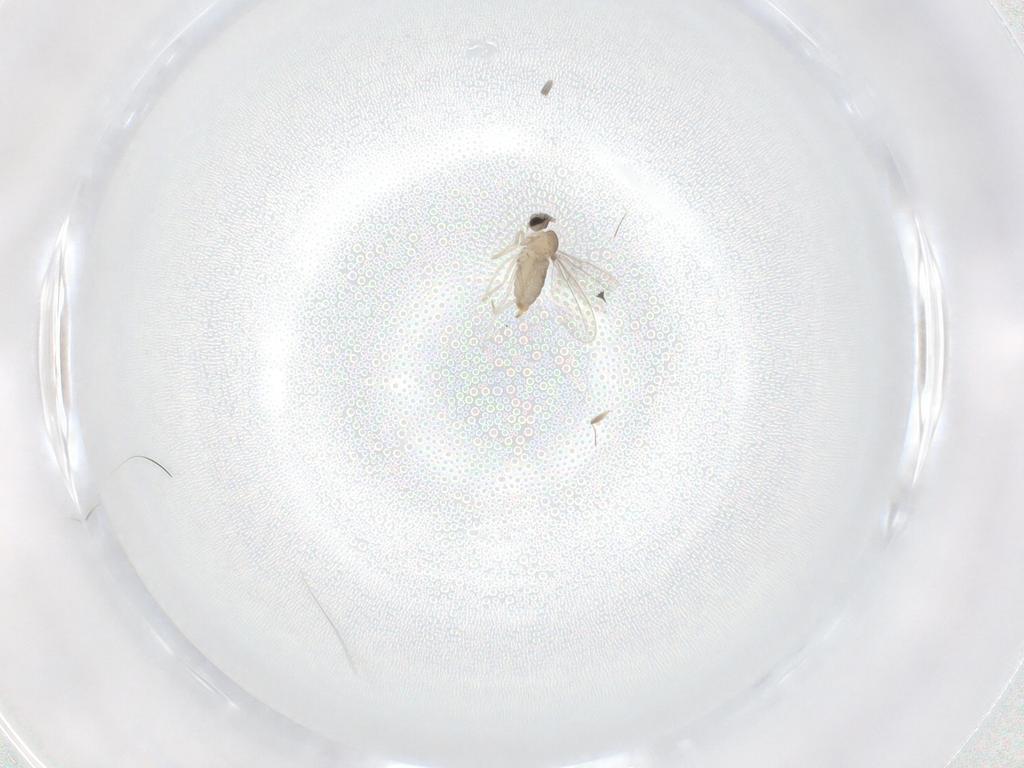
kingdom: Animalia
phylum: Arthropoda
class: Insecta
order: Diptera
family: Cecidomyiidae
